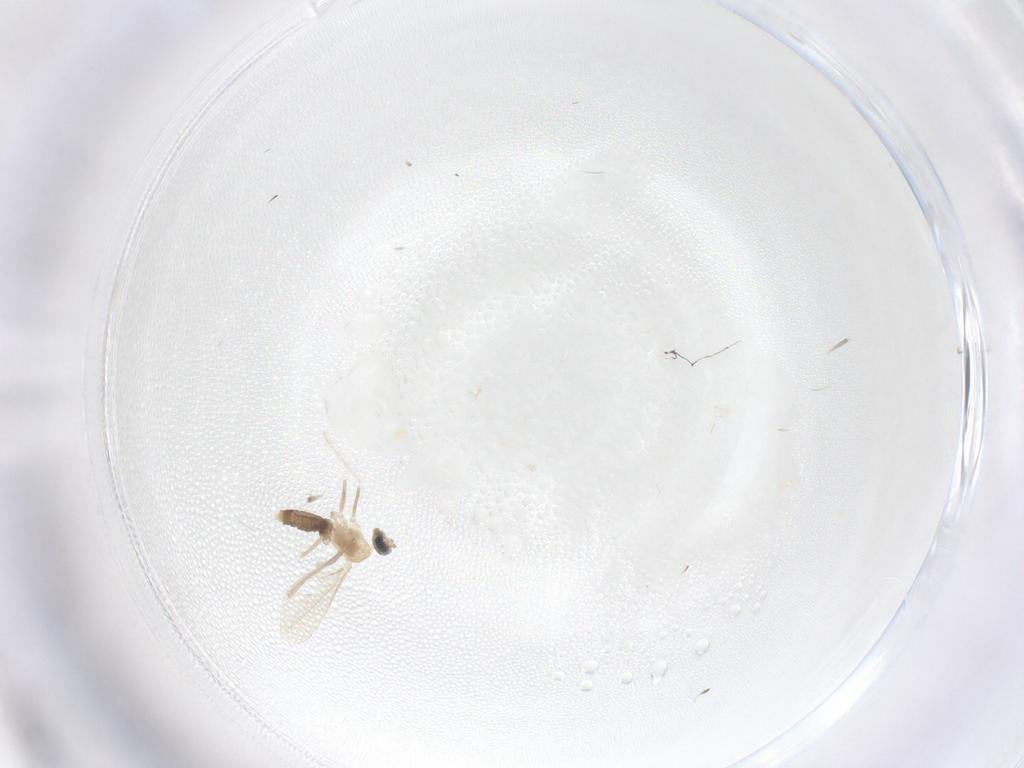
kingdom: Animalia
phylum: Arthropoda
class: Insecta
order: Diptera
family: Cecidomyiidae
